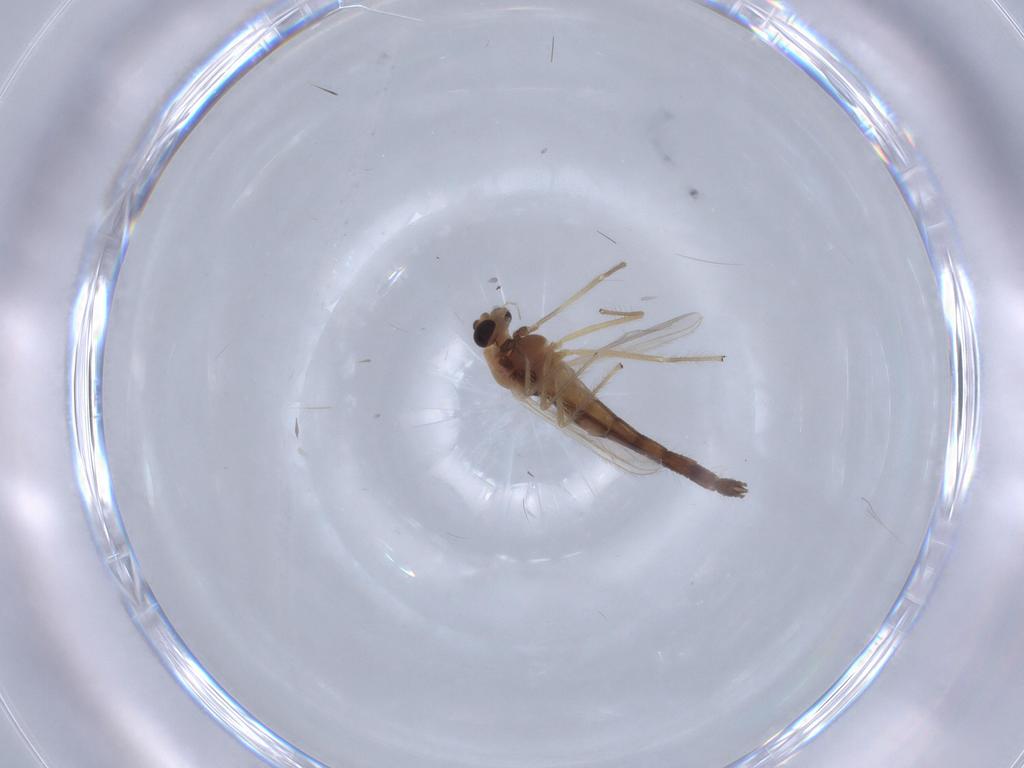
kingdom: Animalia
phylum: Arthropoda
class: Insecta
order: Diptera
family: Chironomidae
